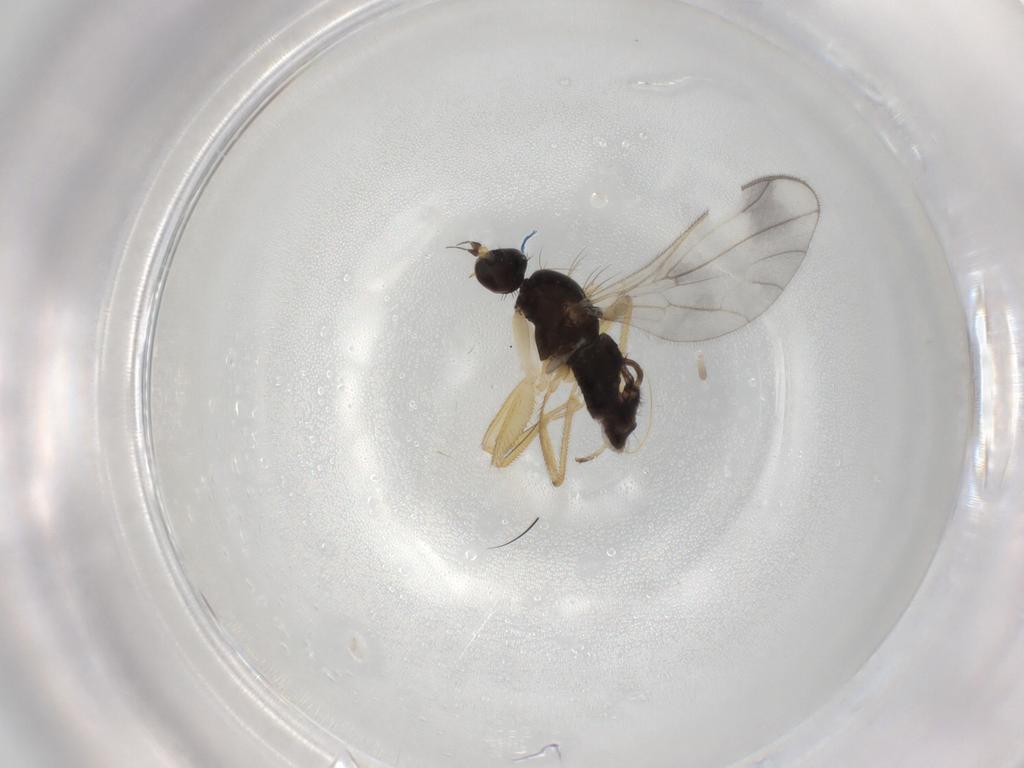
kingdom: Animalia
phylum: Arthropoda
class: Insecta
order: Diptera
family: Empididae
